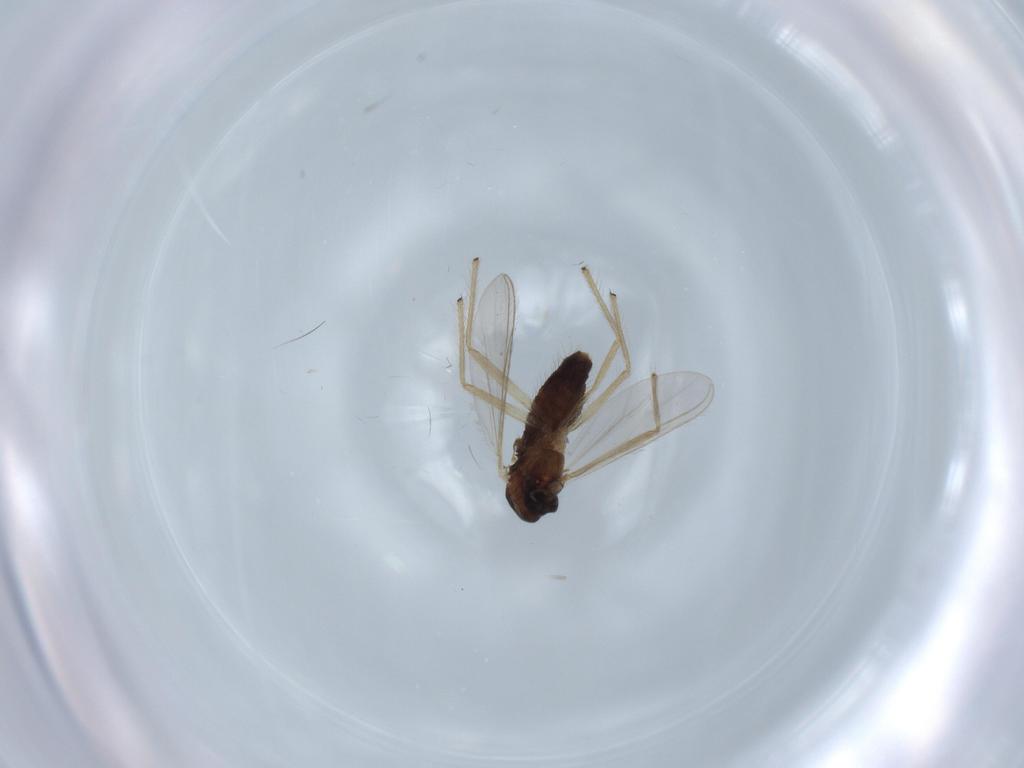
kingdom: Animalia
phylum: Arthropoda
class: Insecta
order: Diptera
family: Chironomidae
